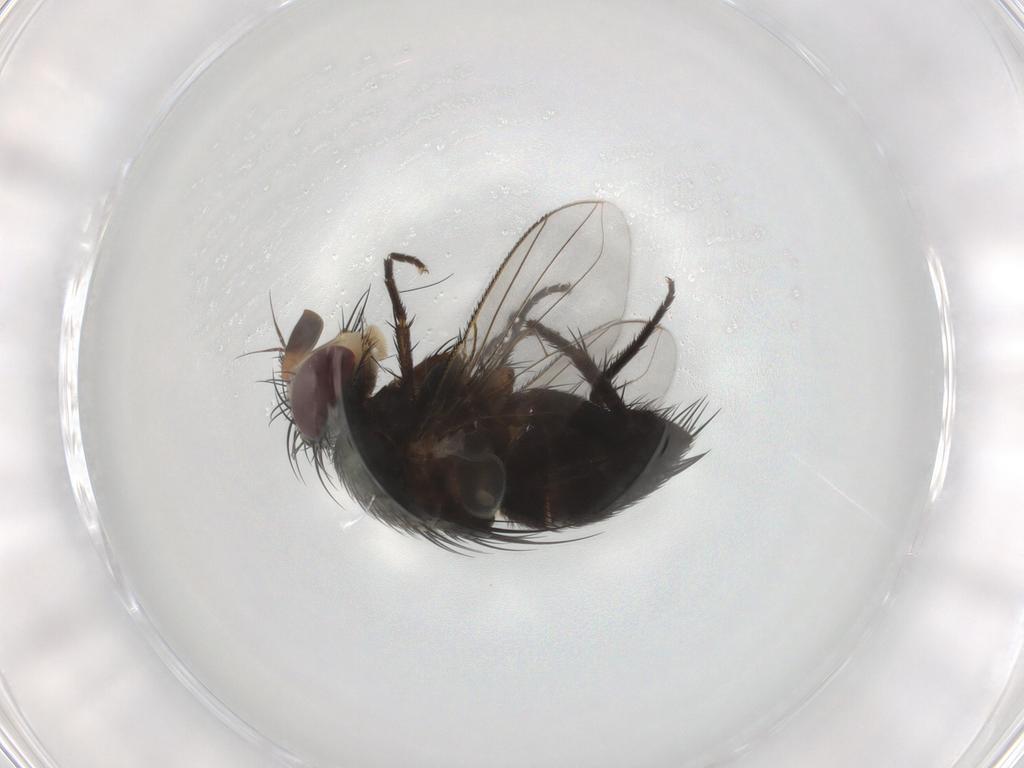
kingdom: Animalia
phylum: Arthropoda
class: Insecta
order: Diptera
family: Tachinidae
